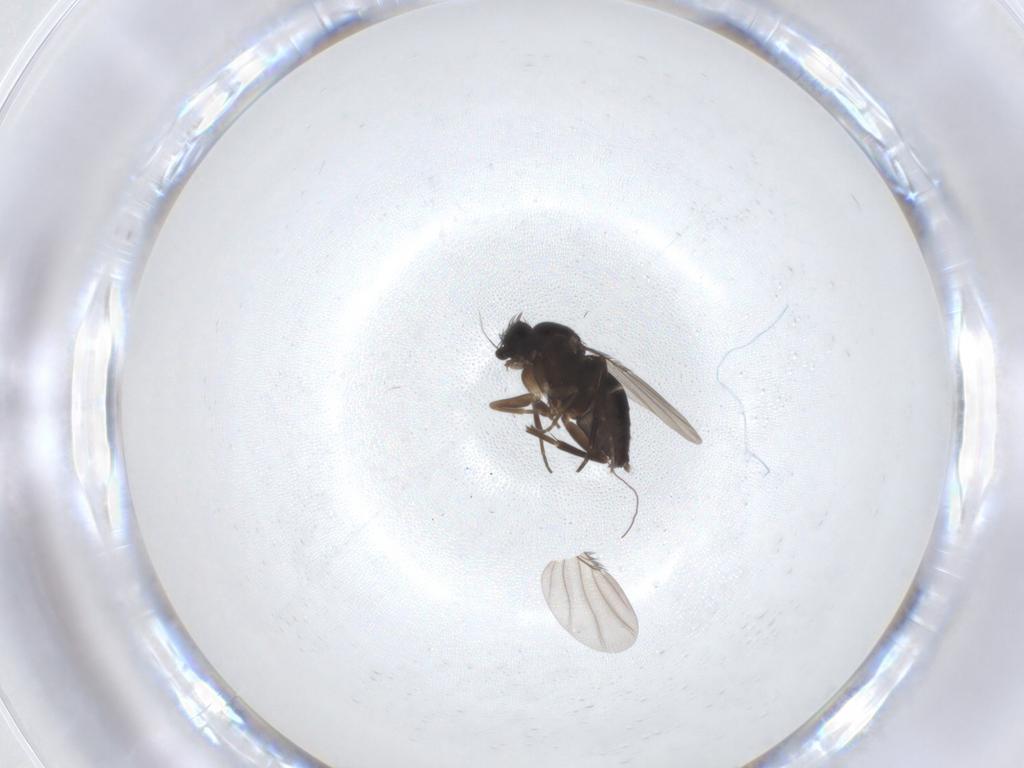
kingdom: Animalia
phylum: Arthropoda
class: Insecta
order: Diptera
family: Phoridae
